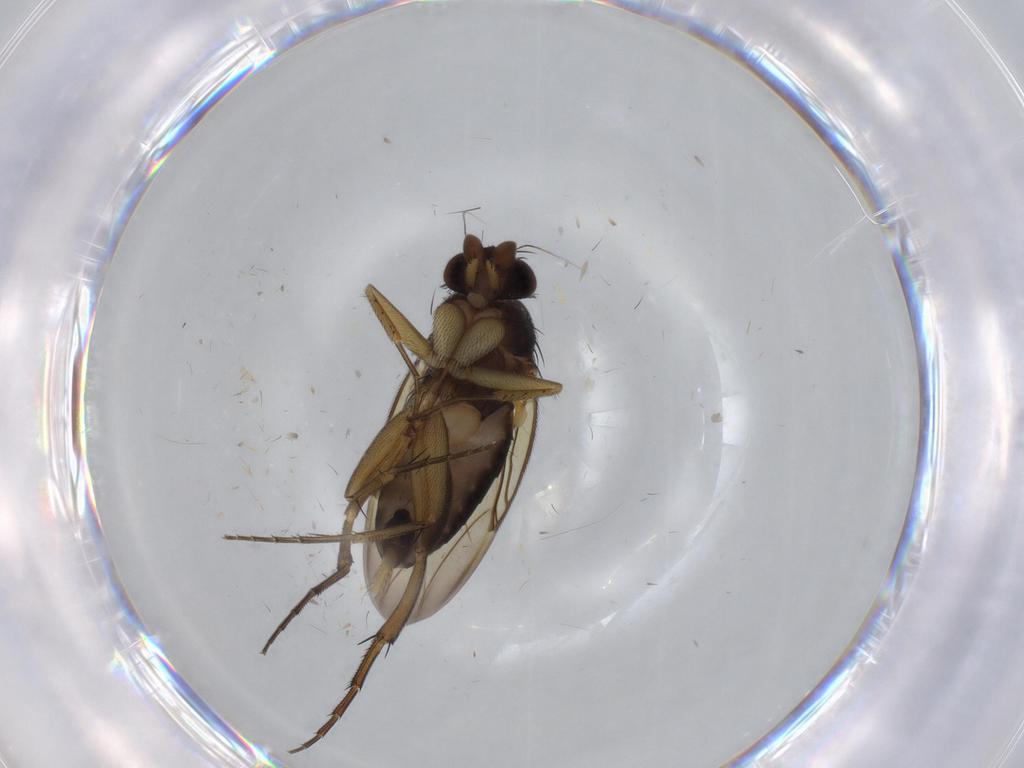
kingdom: Animalia
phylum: Arthropoda
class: Insecta
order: Diptera
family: Phoridae
